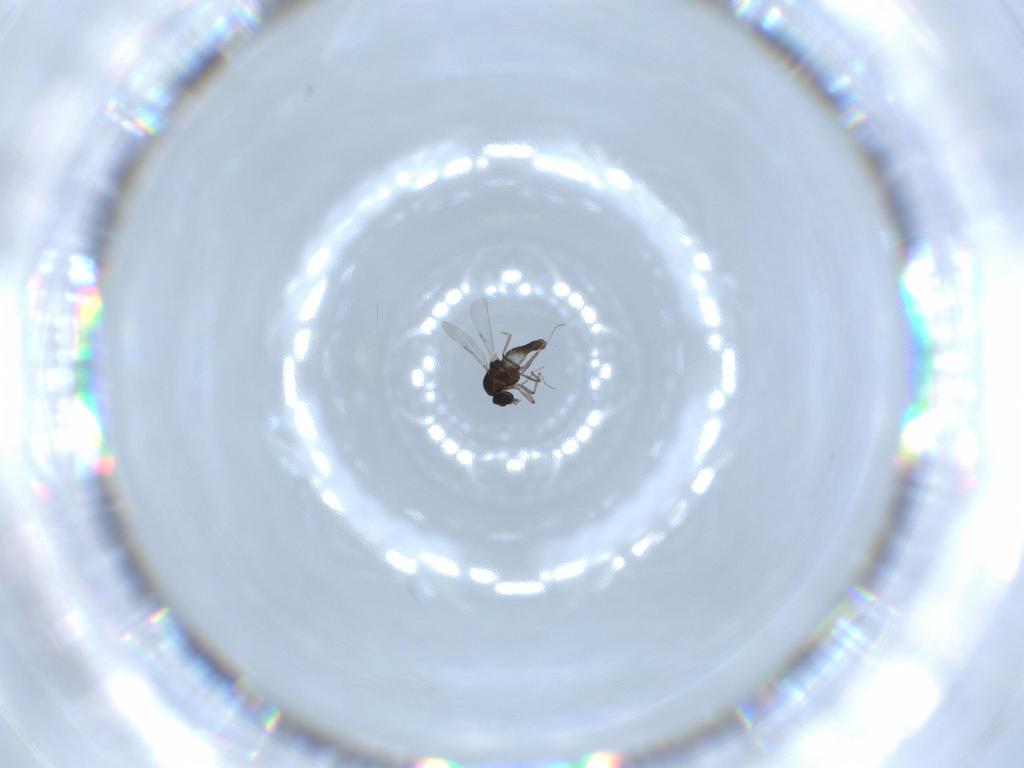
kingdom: Animalia
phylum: Arthropoda
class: Insecta
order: Diptera
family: Ceratopogonidae
